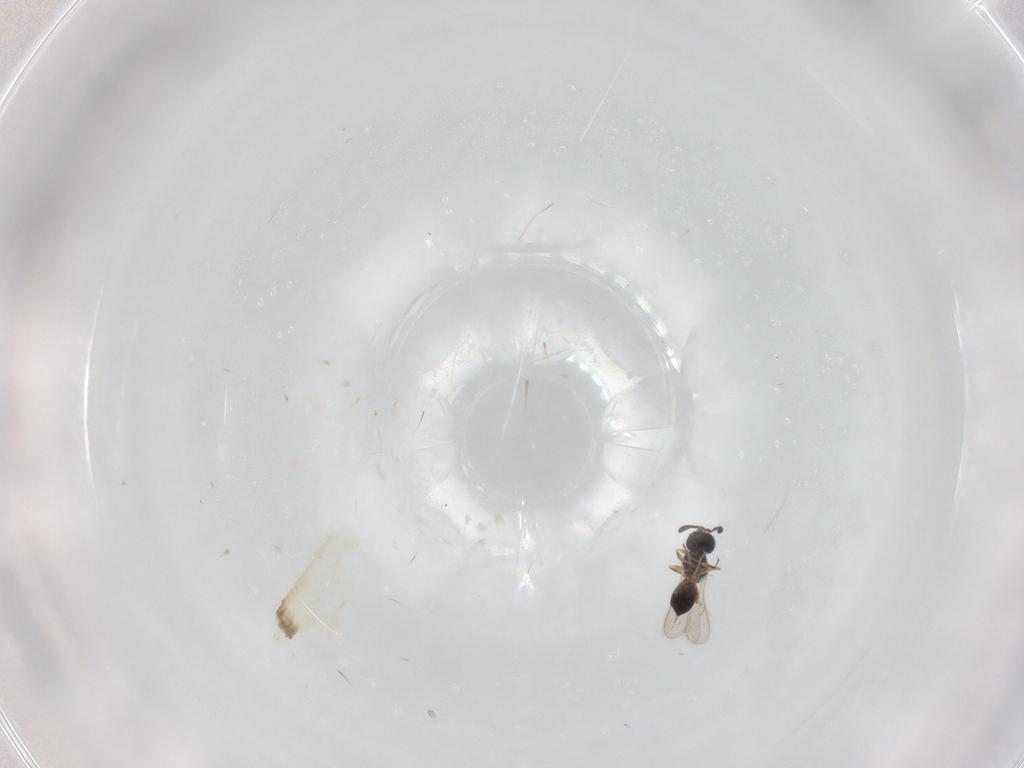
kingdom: Animalia
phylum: Arthropoda
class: Insecta
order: Hymenoptera
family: Scelionidae
